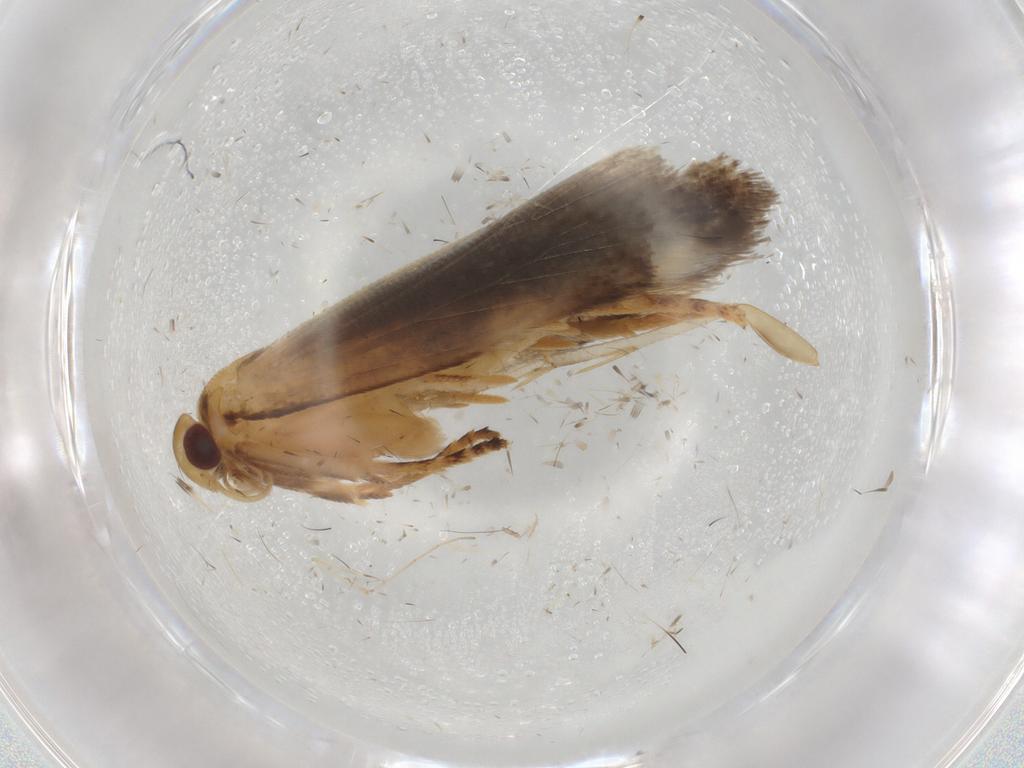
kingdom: Animalia
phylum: Arthropoda
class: Insecta
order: Lepidoptera
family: Gelechiidae
